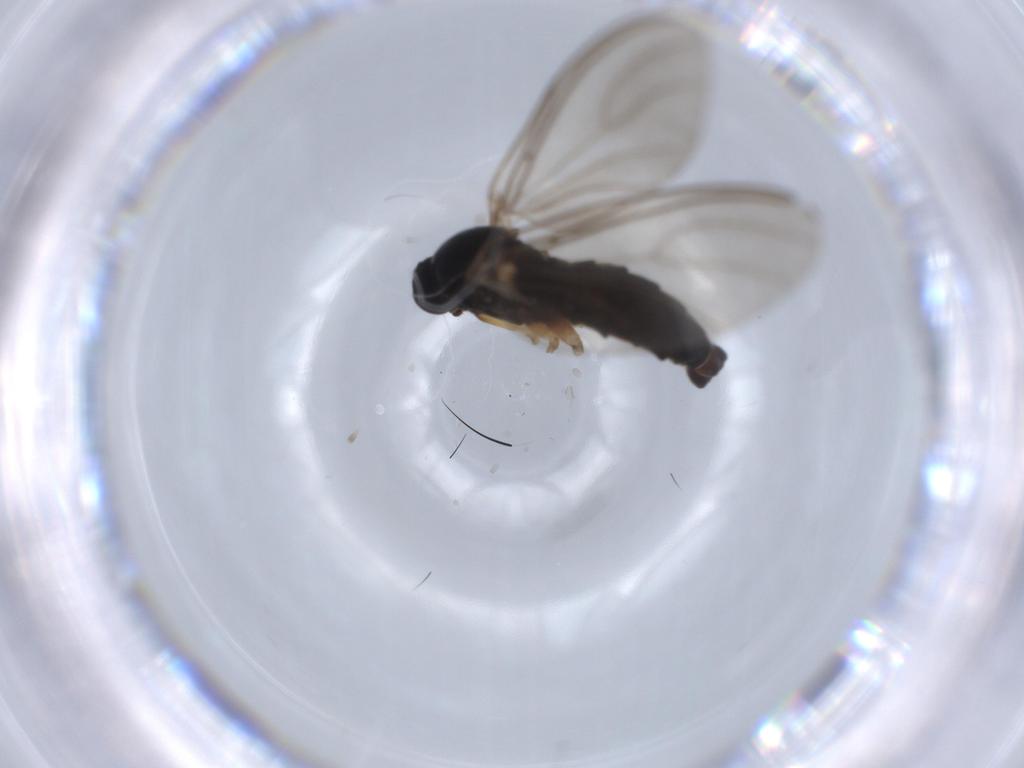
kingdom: Animalia
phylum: Arthropoda
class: Insecta
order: Diptera
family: Sciaridae
